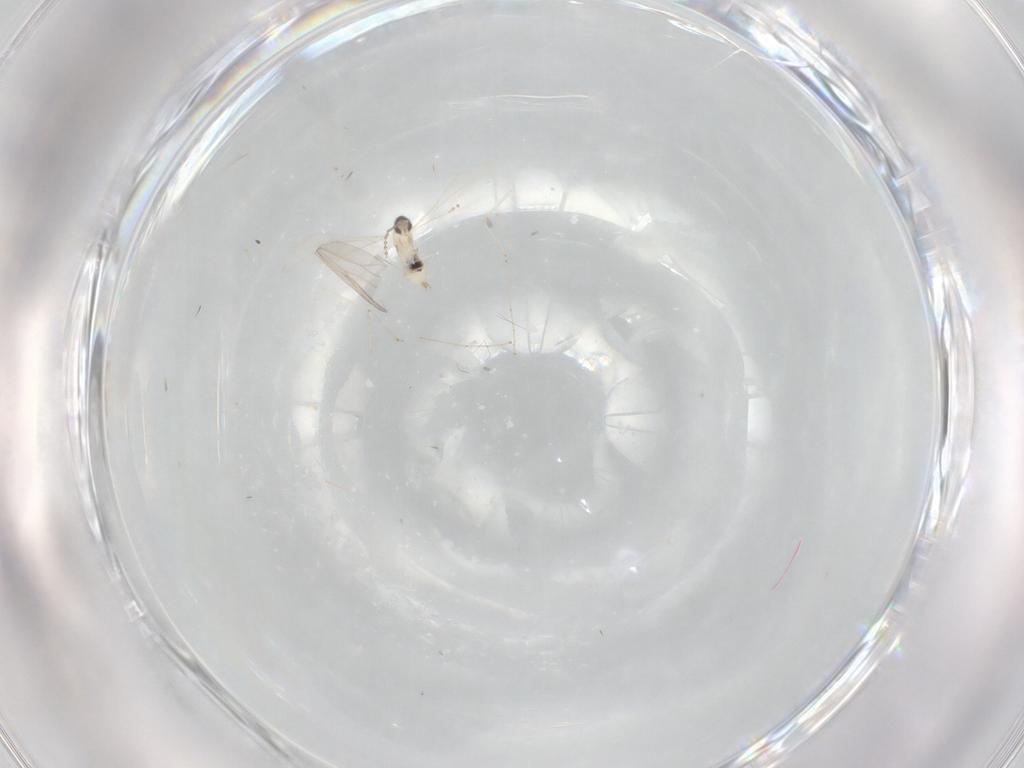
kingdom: Animalia
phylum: Arthropoda
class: Insecta
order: Diptera
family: Cecidomyiidae
